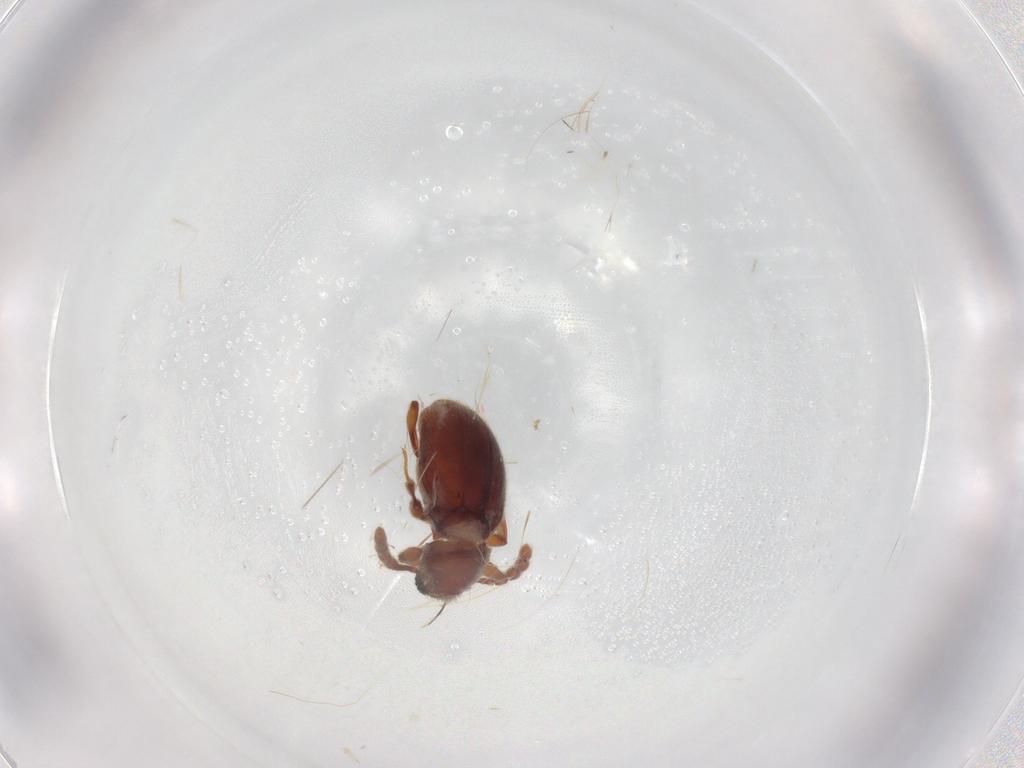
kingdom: Animalia
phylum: Arthropoda
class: Insecta
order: Coleoptera
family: Staphylinidae
